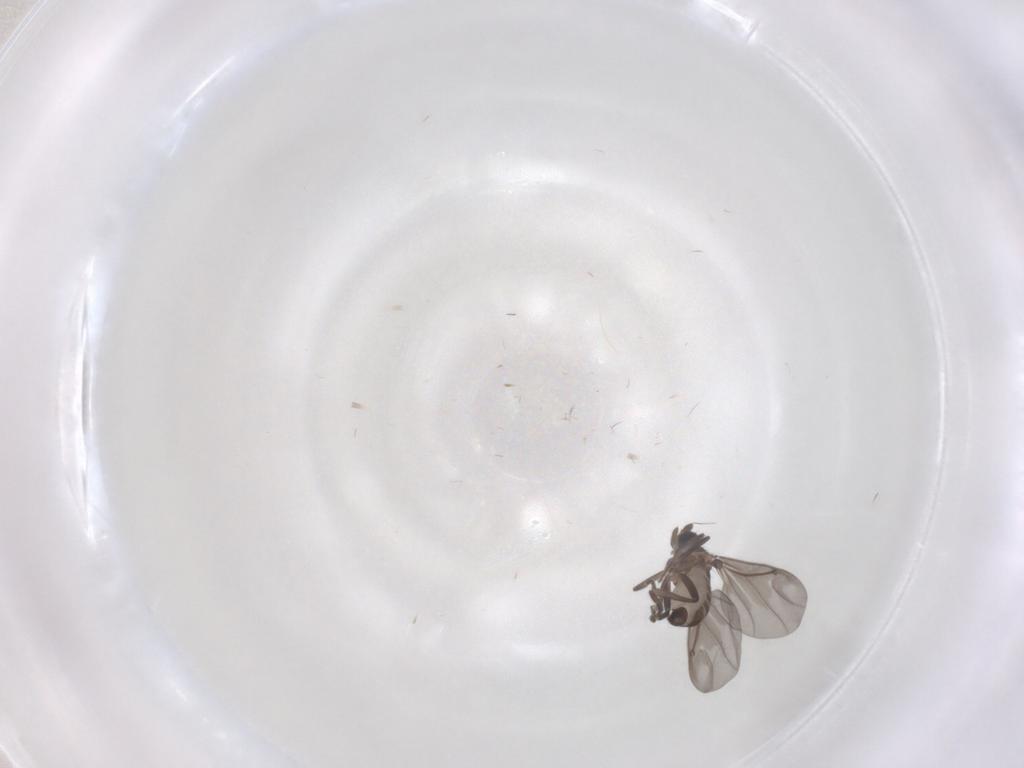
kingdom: Animalia
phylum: Arthropoda
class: Insecta
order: Diptera
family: Phoridae
